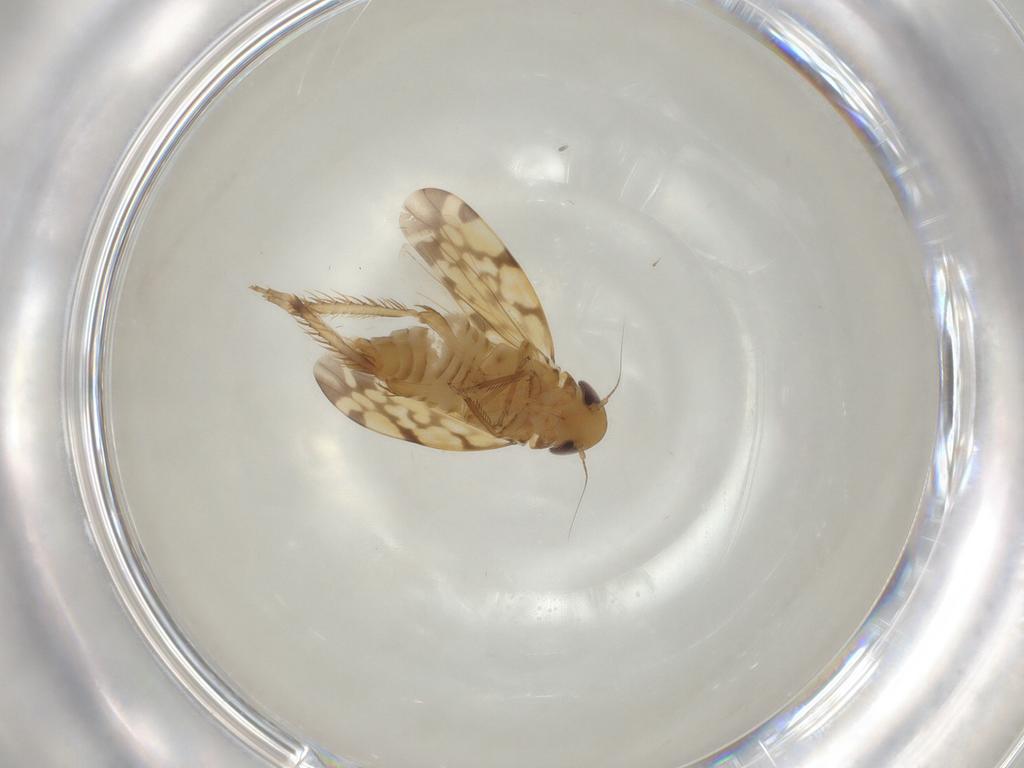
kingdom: Animalia
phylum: Arthropoda
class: Insecta
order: Hemiptera
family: Cicadellidae
